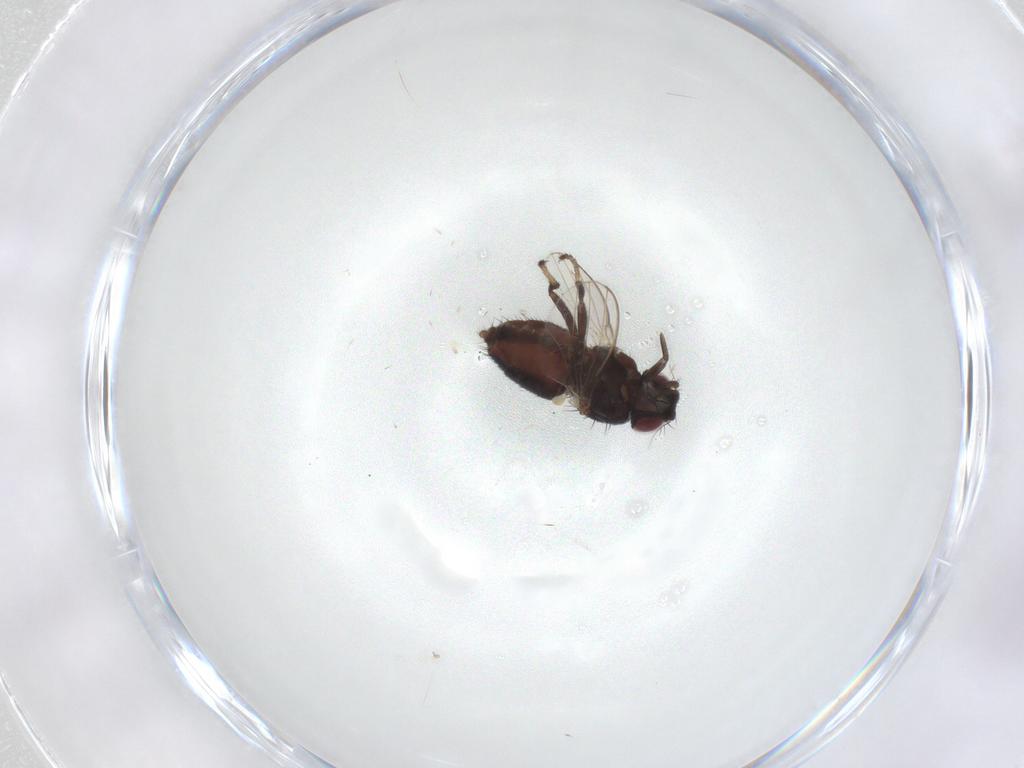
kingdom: Animalia
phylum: Arthropoda
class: Insecta
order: Diptera
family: Milichiidae
